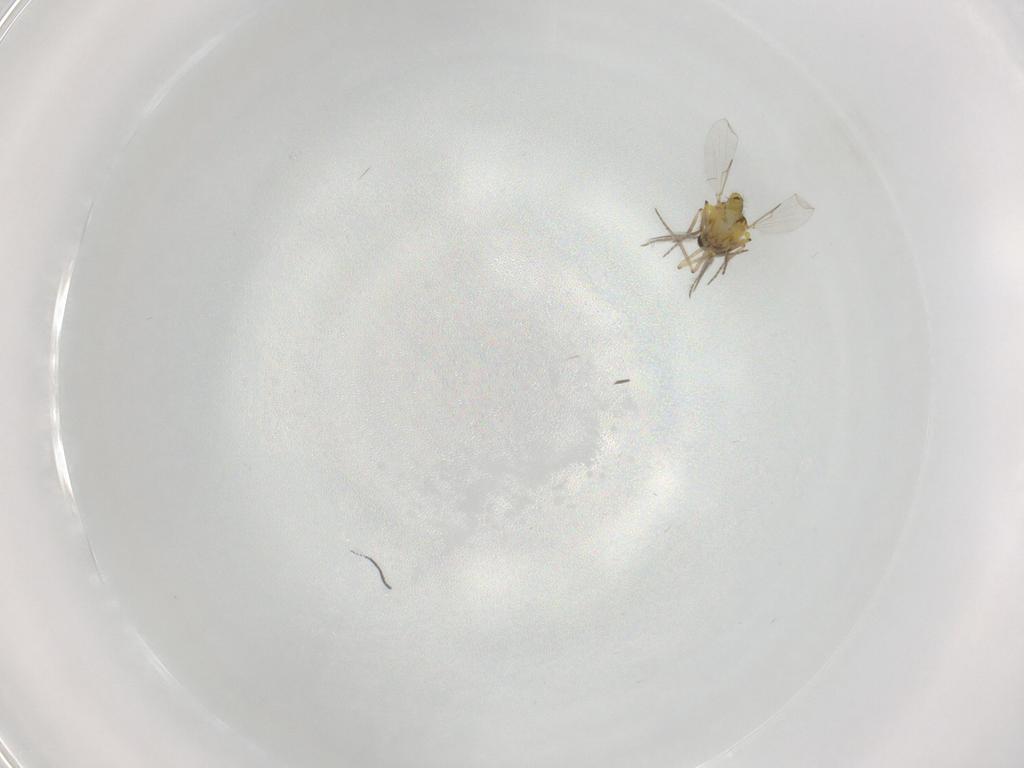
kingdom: Animalia
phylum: Arthropoda
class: Insecta
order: Diptera
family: Ceratopogonidae
